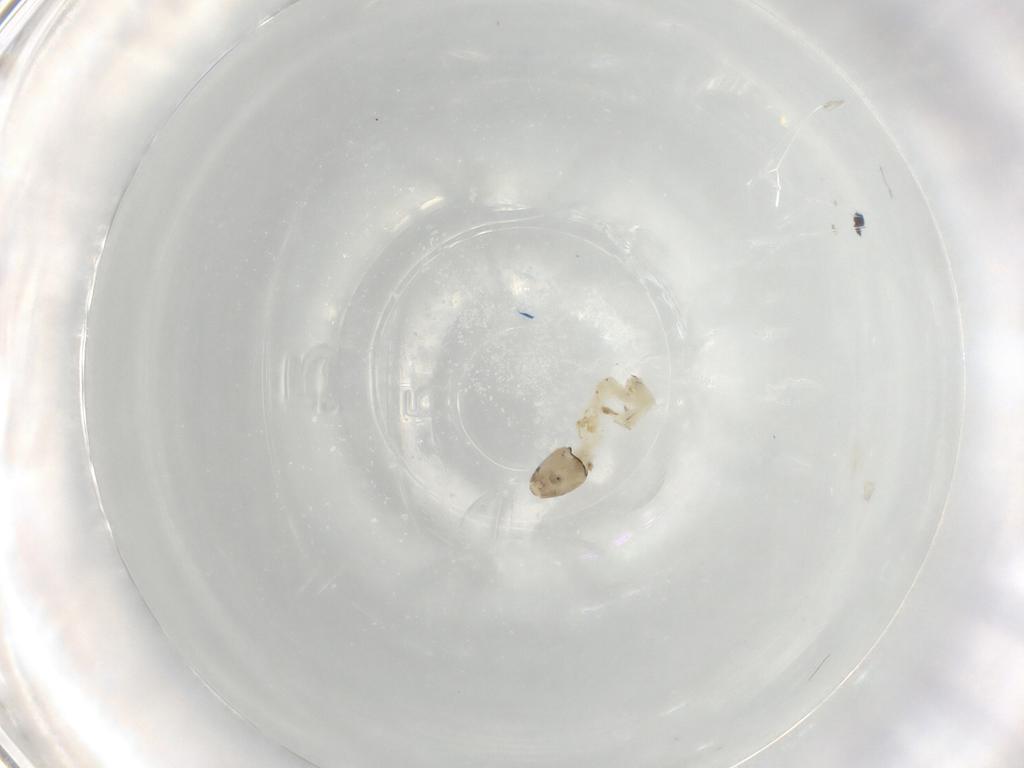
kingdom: Animalia
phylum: Arthropoda
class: Insecta
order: Diptera
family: Chironomidae
